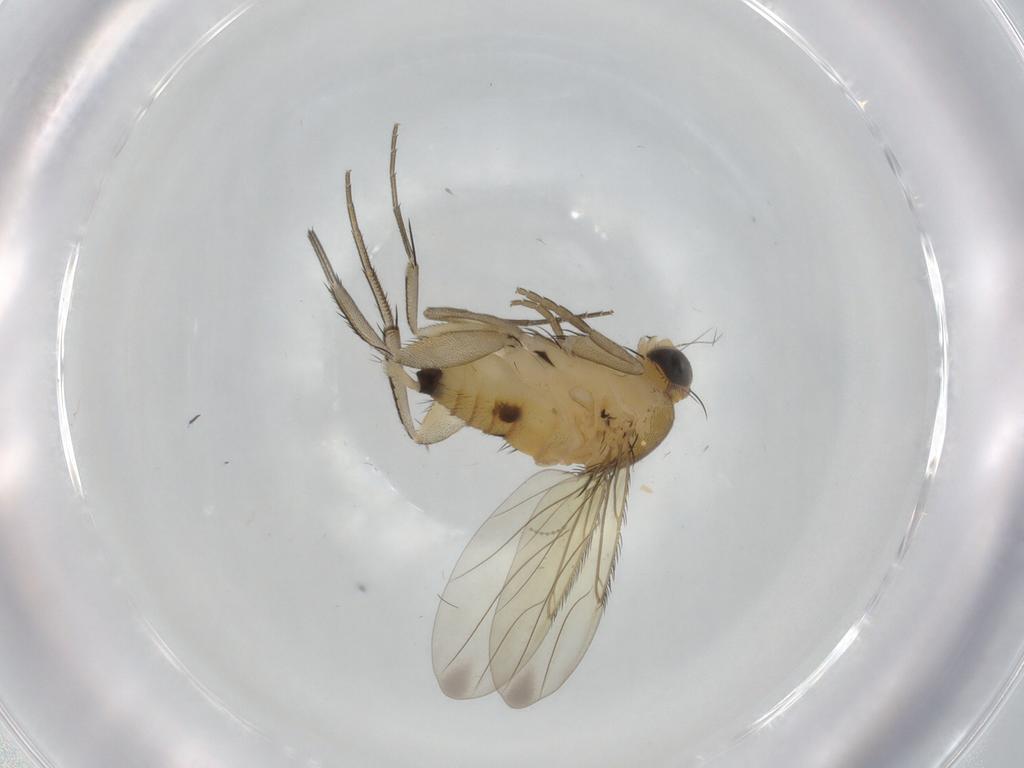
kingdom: Animalia
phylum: Arthropoda
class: Insecta
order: Diptera
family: Phoridae
